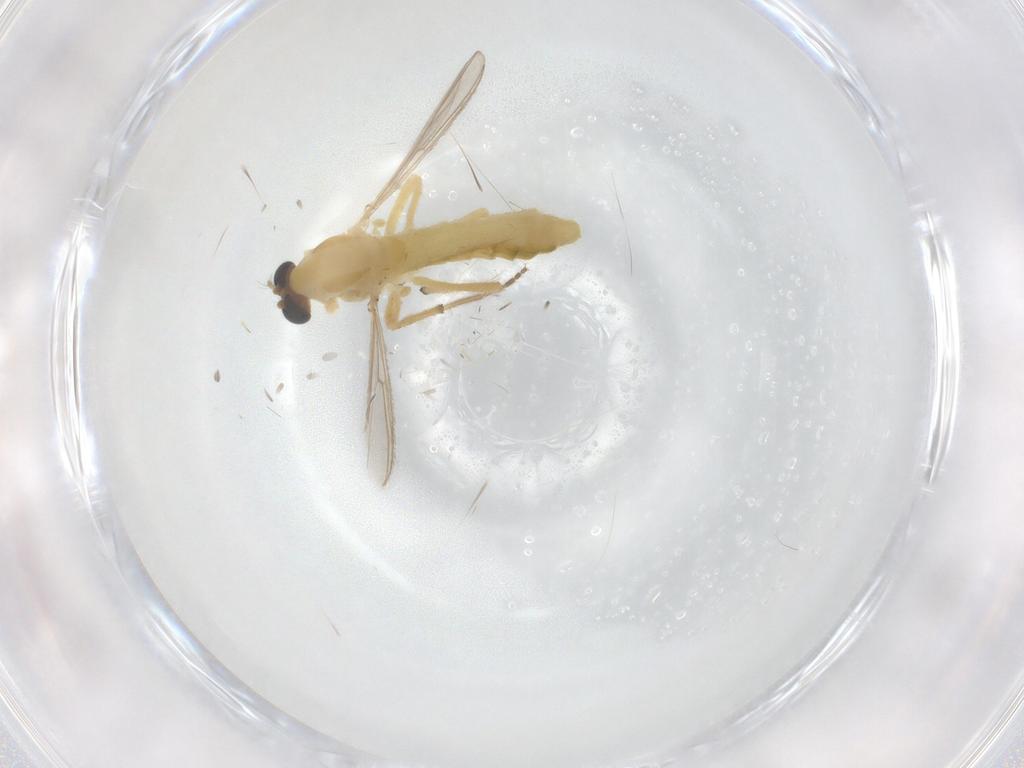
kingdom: Animalia
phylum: Arthropoda
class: Insecta
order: Diptera
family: Chironomidae
